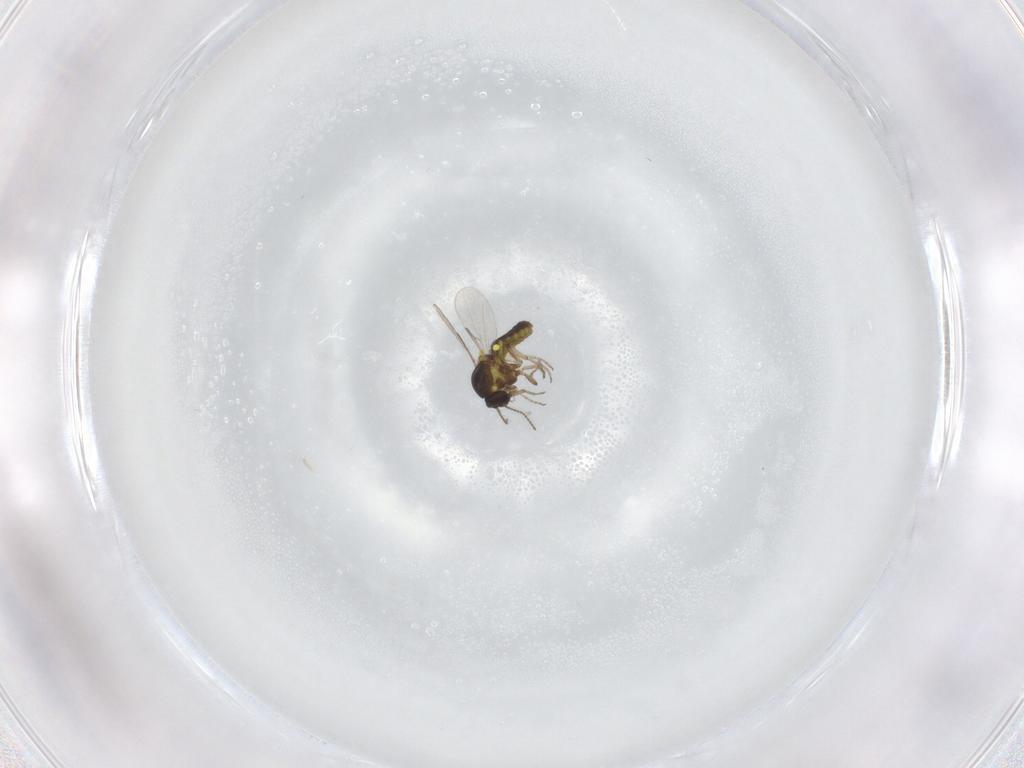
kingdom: Animalia
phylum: Arthropoda
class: Insecta
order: Diptera
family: Ceratopogonidae
